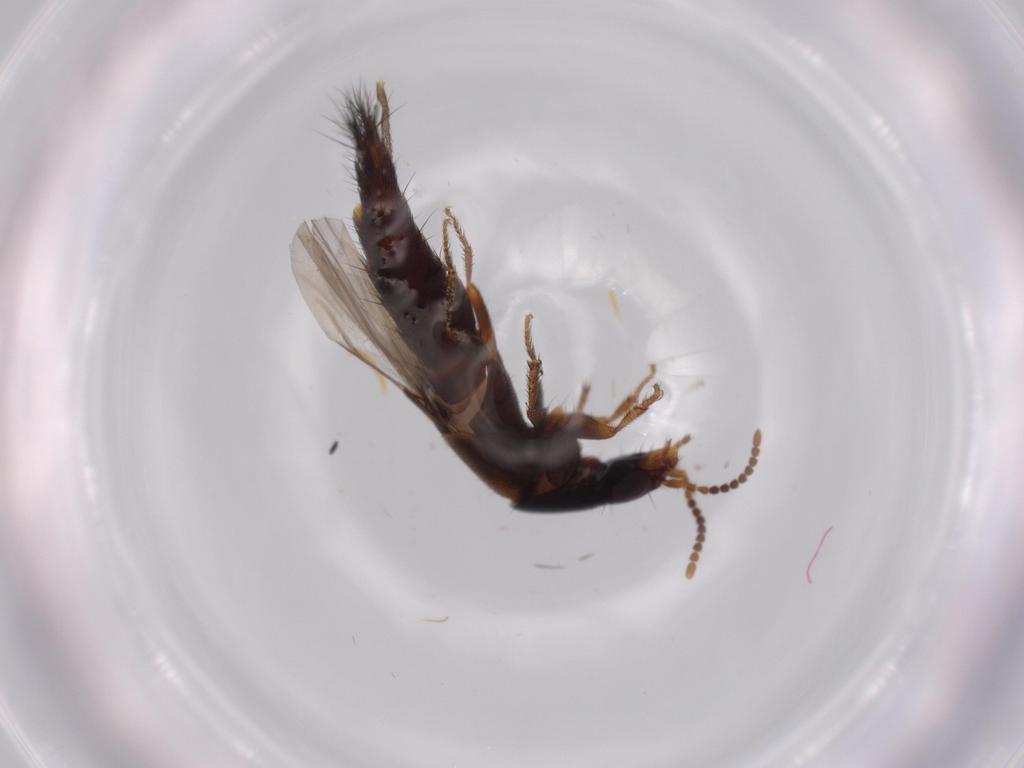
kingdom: Animalia
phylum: Arthropoda
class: Insecta
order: Coleoptera
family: Staphylinidae
